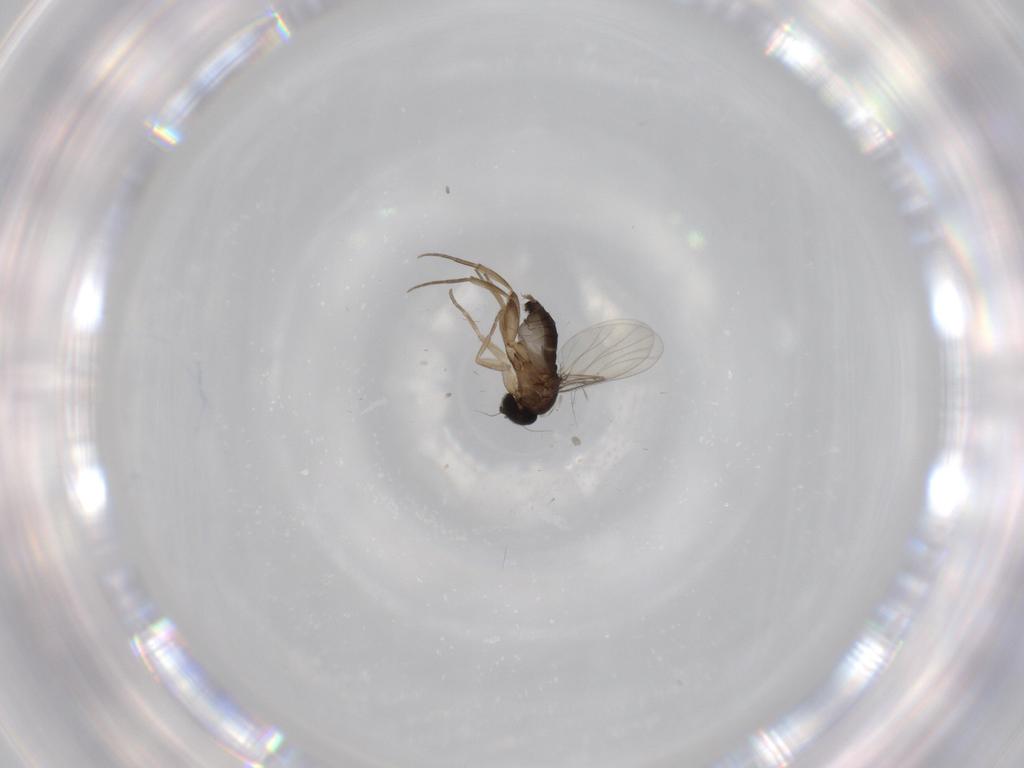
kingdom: Animalia
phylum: Arthropoda
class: Insecta
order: Diptera
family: Phoridae
